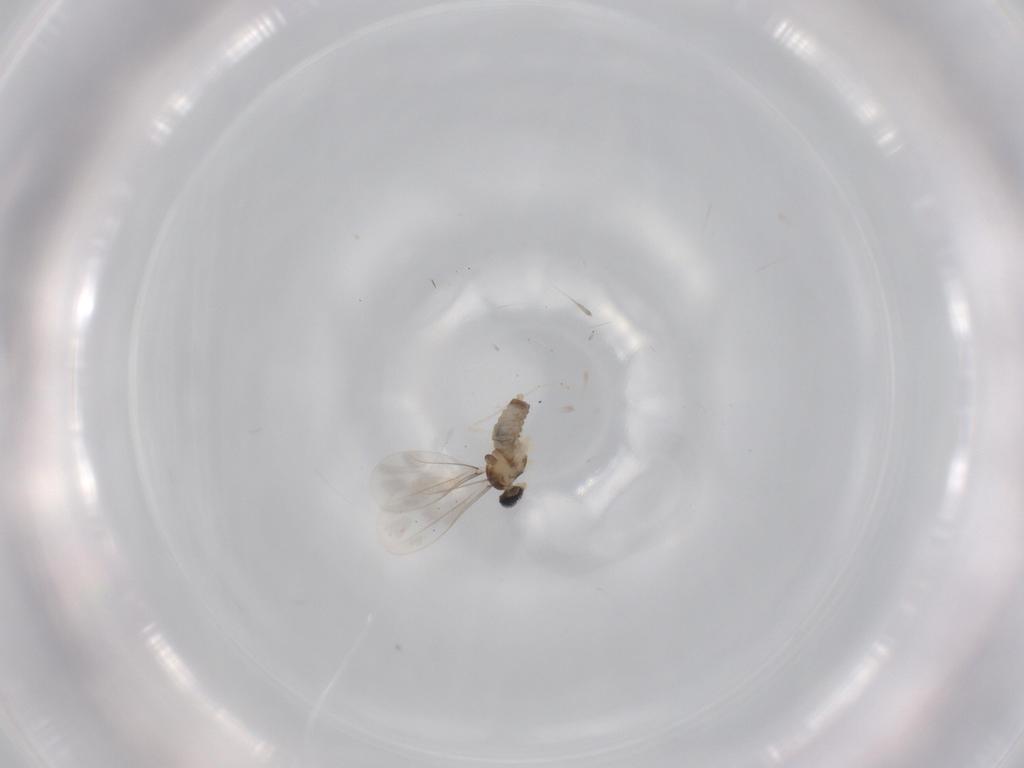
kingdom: Animalia
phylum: Arthropoda
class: Insecta
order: Diptera
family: Cecidomyiidae
